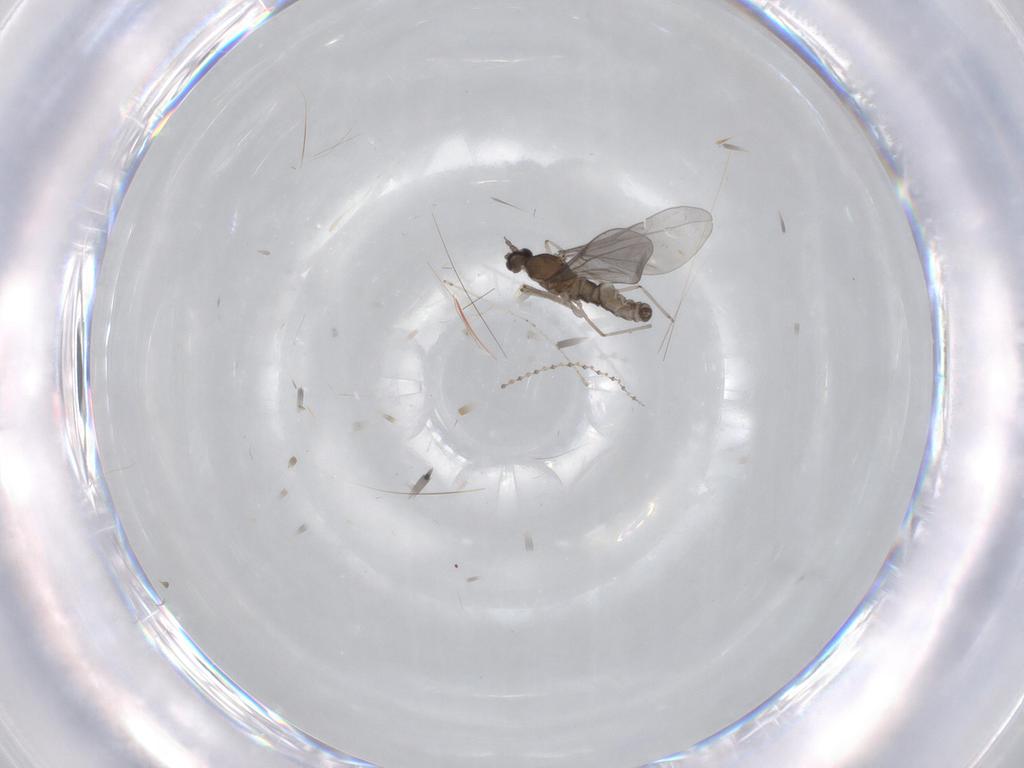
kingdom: Animalia
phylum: Arthropoda
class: Insecta
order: Diptera
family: Cecidomyiidae
